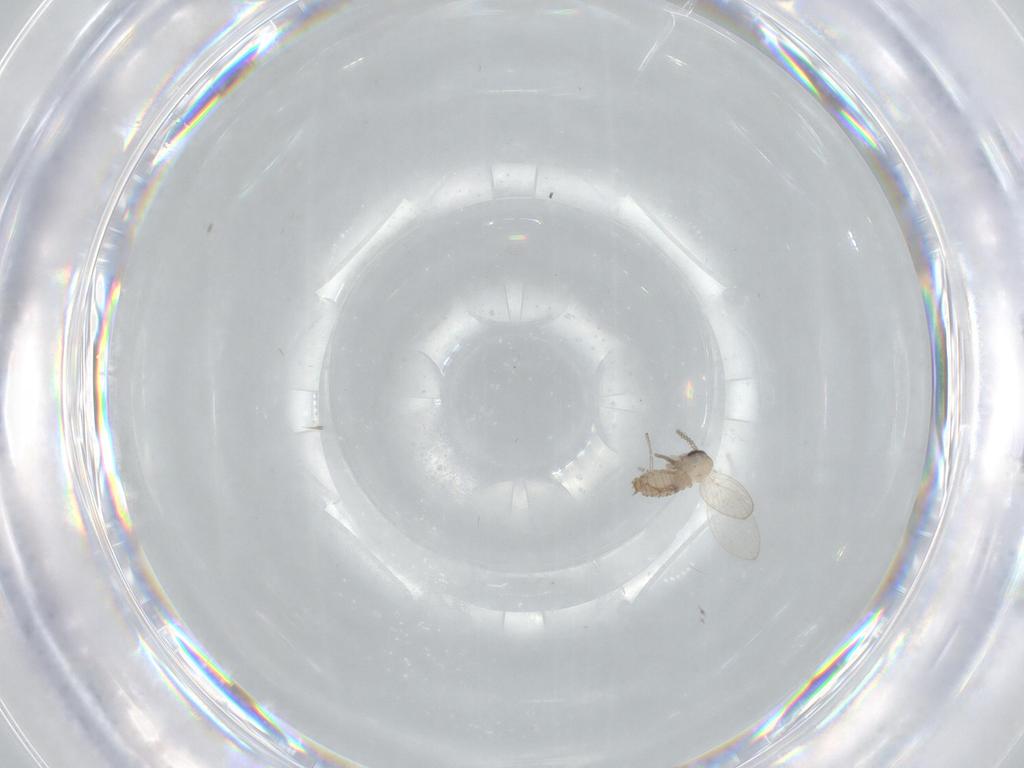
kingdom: Animalia
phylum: Arthropoda
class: Insecta
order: Diptera
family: Psychodidae
